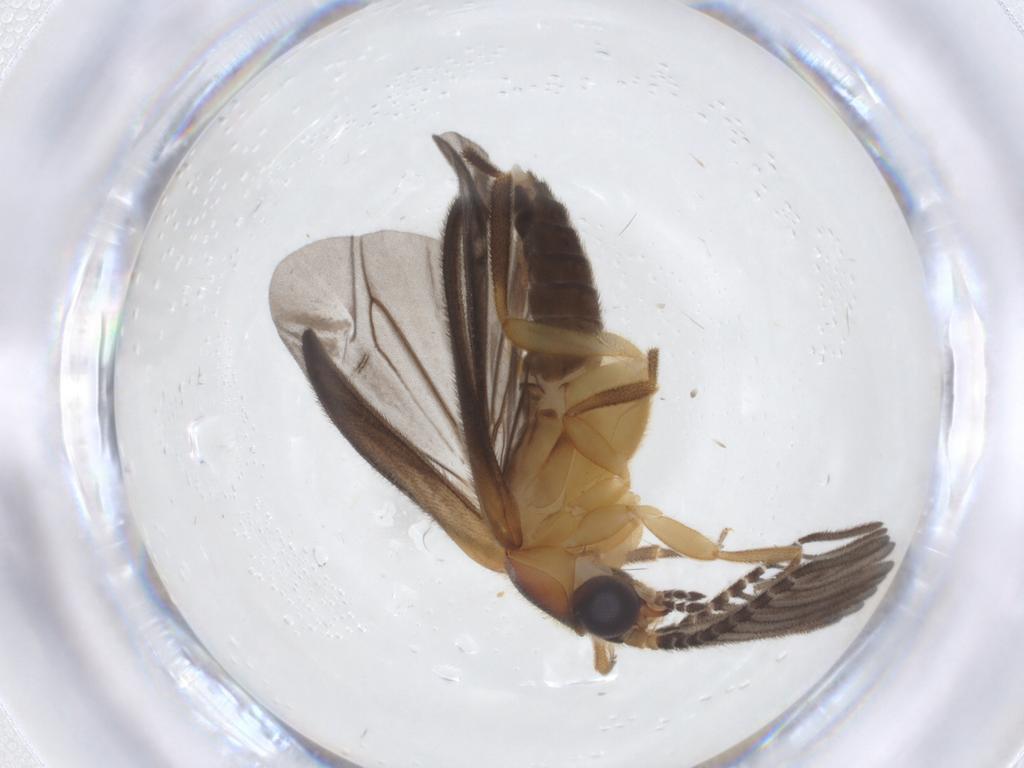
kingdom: Animalia
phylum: Arthropoda
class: Insecta
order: Coleoptera
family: Lampyridae
